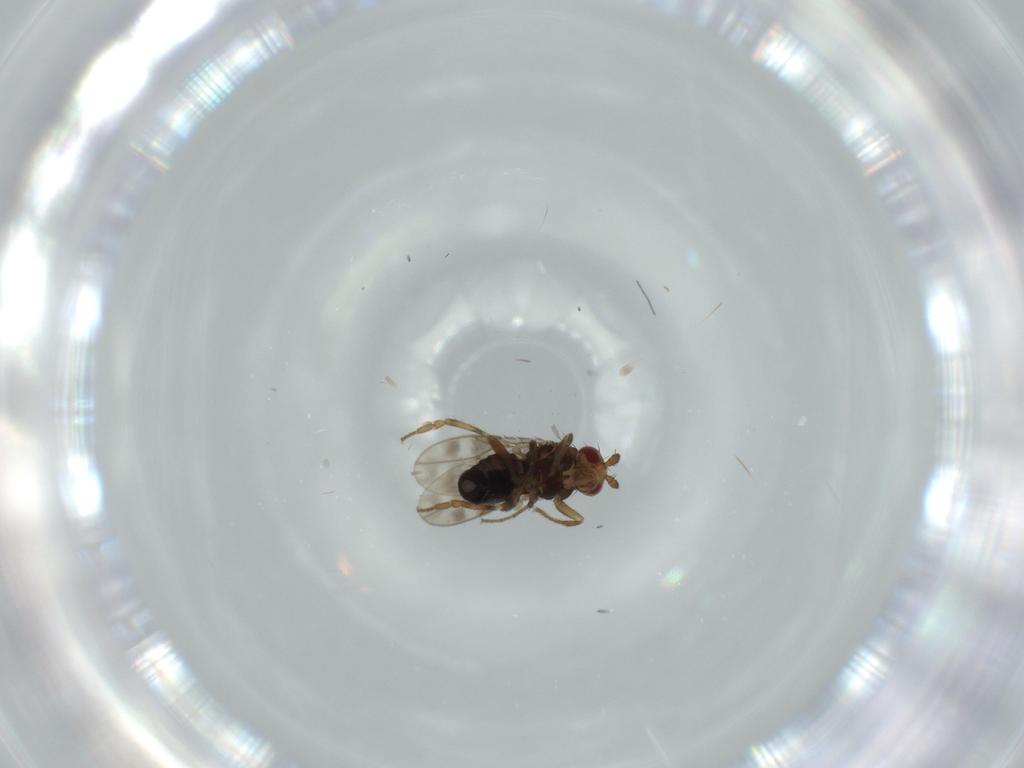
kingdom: Animalia
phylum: Arthropoda
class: Insecta
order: Diptera
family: Sphaeroceridae
